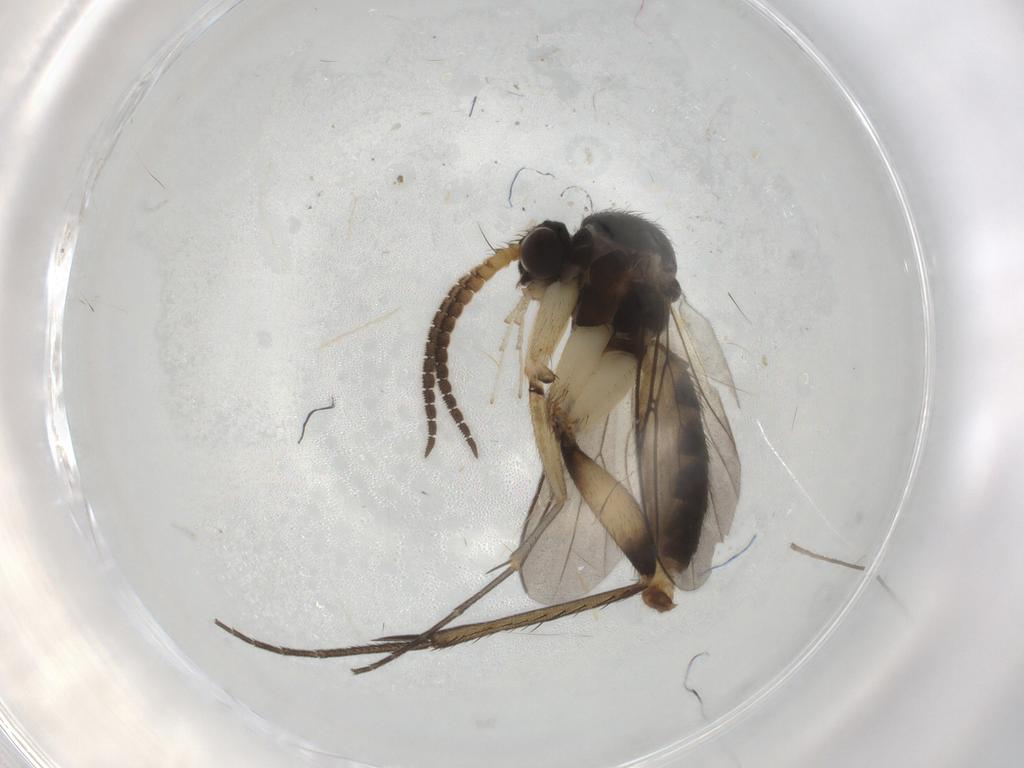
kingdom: Animalia
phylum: Arthropoda
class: Insecta
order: Diptera
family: Limoniidae
